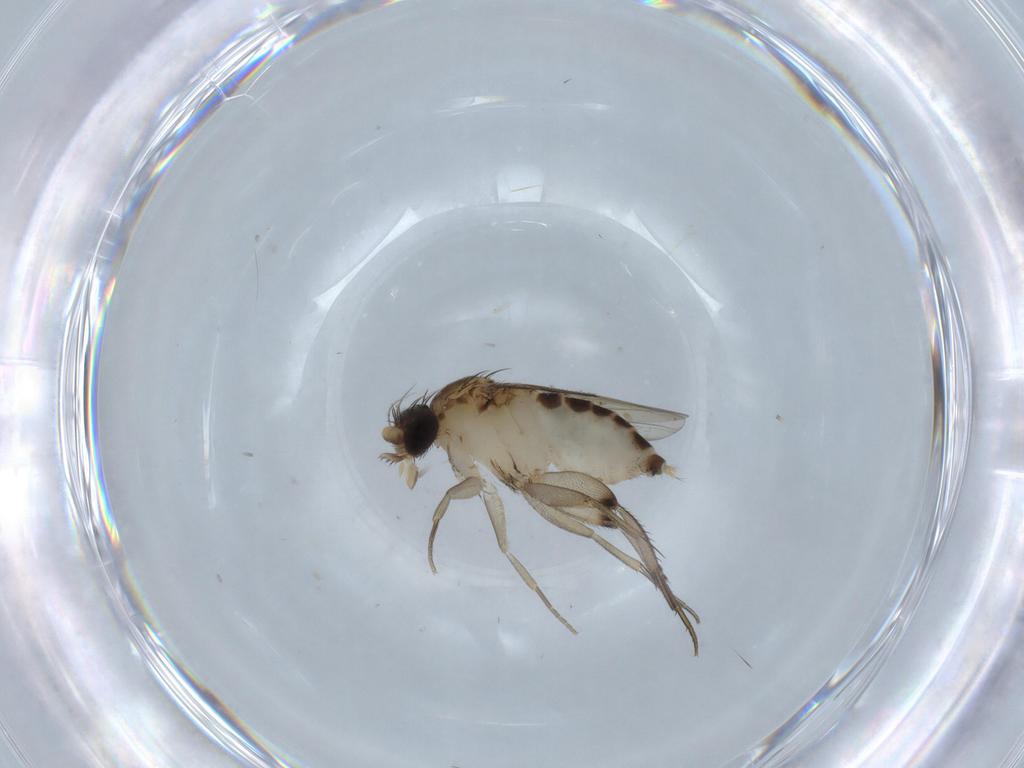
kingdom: Animalia
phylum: Arthropoda
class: Insecta
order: Diptera
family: Phoridae
